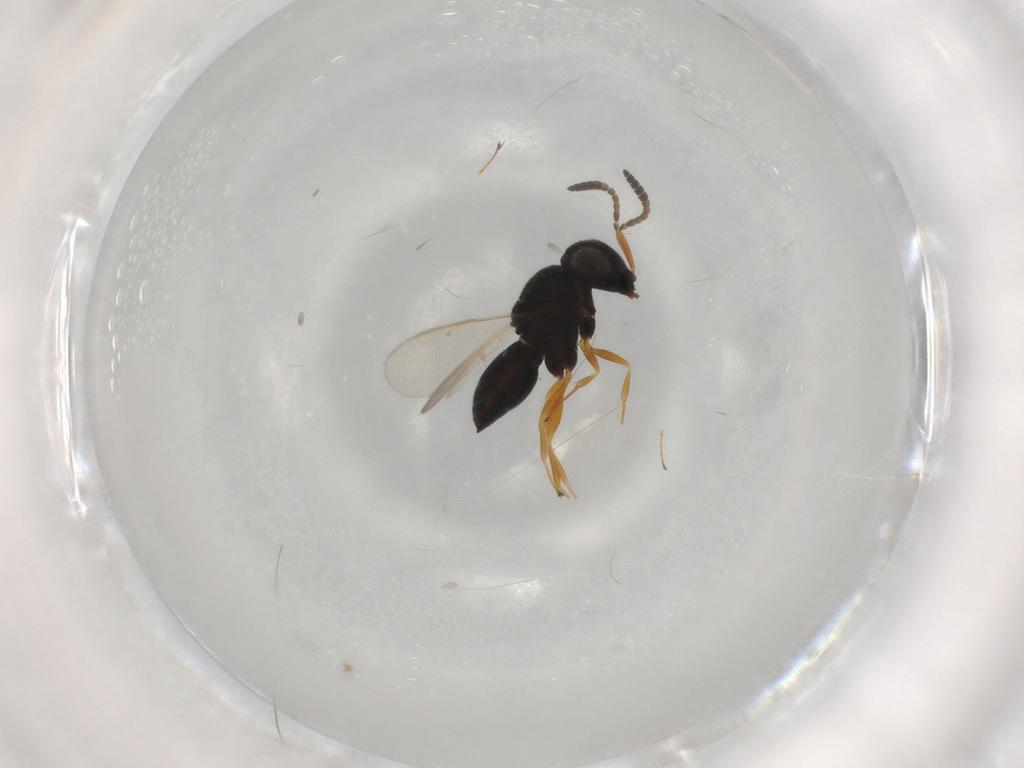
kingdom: Animalia
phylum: Arthropoda
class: Insecta
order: Hymenoptera
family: Scelionidae
